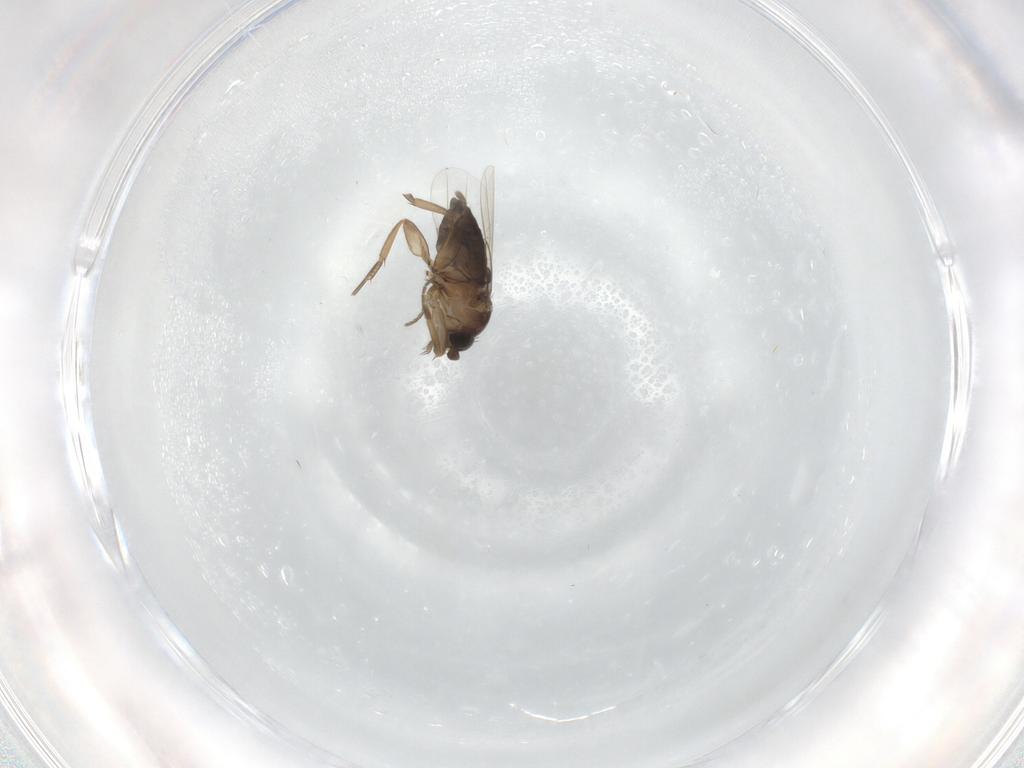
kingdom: Animalia
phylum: Arthropoda
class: Insecta
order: Diptera
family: Phoridae
